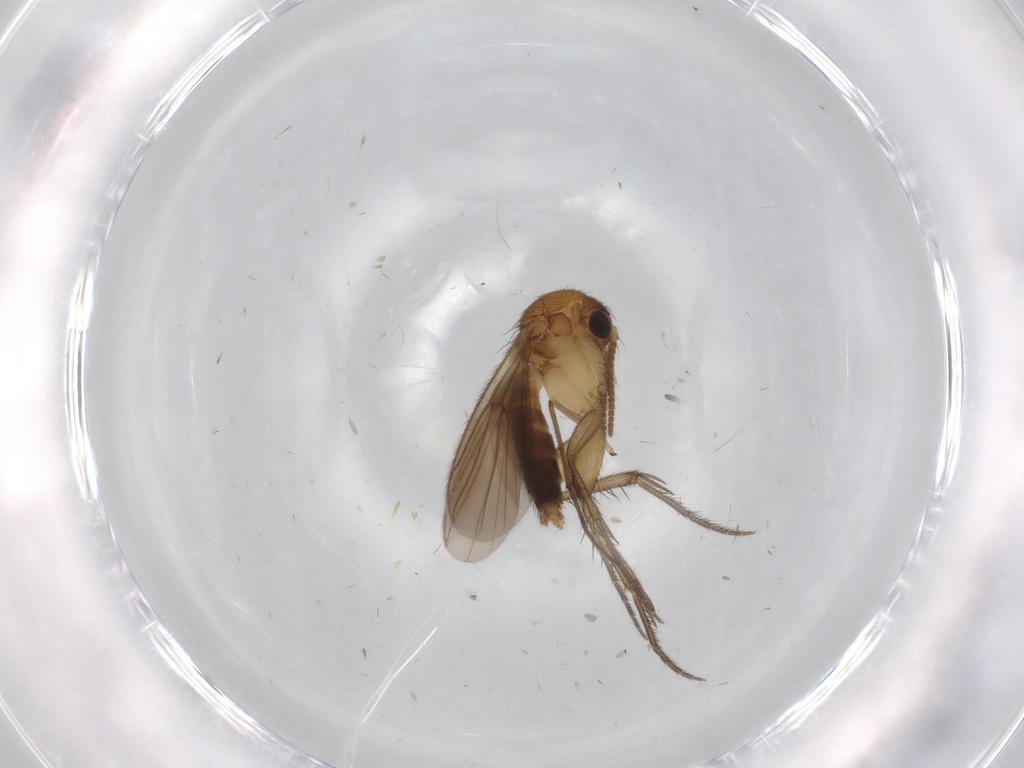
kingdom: Animalia
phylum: Arthropoda
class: Insecta
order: Diptera
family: Mycetophilidae
